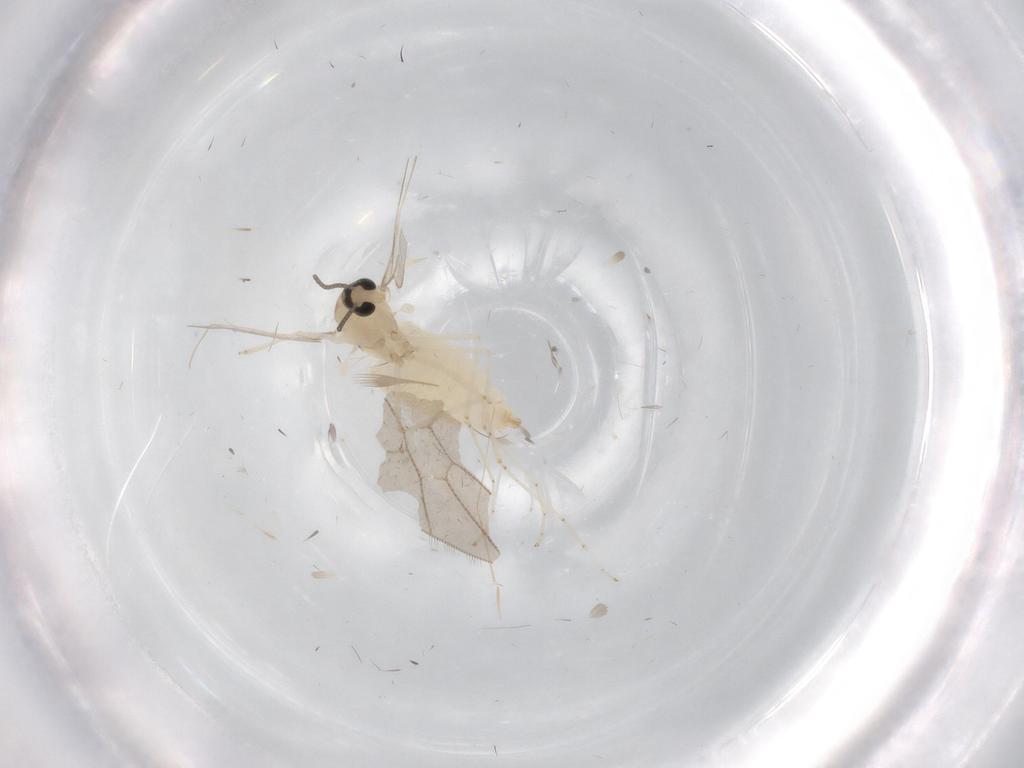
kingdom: Animalia
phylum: Arthropoda
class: Insecta
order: Diptera
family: Cecidomyiidae
